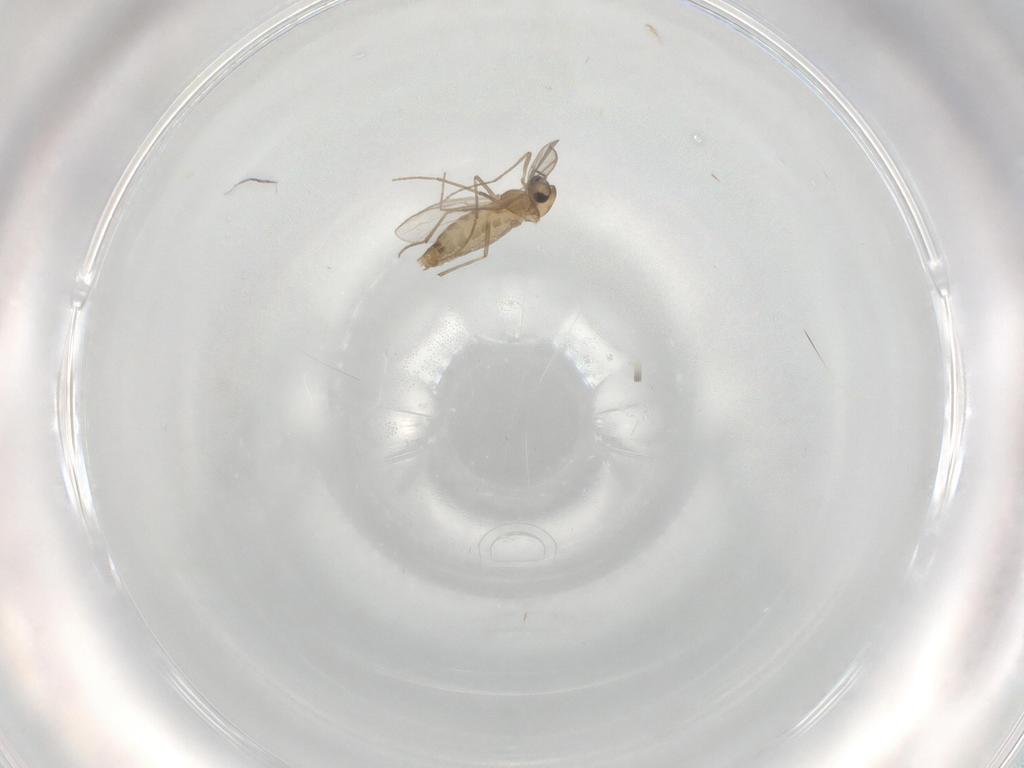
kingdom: Animalia
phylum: Arthropoda
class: Insecta
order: Diptera
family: Chironomidae
